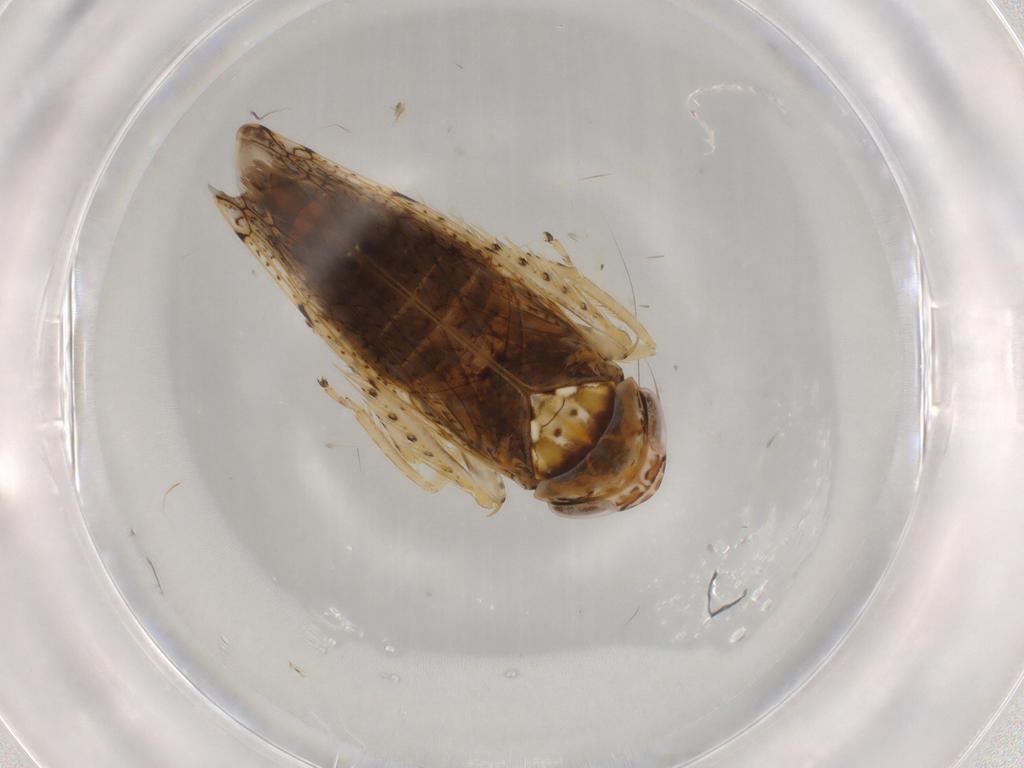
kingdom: Animalia
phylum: Arthropoda
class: Insecta
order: Hemiptera
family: Cicadellidae
